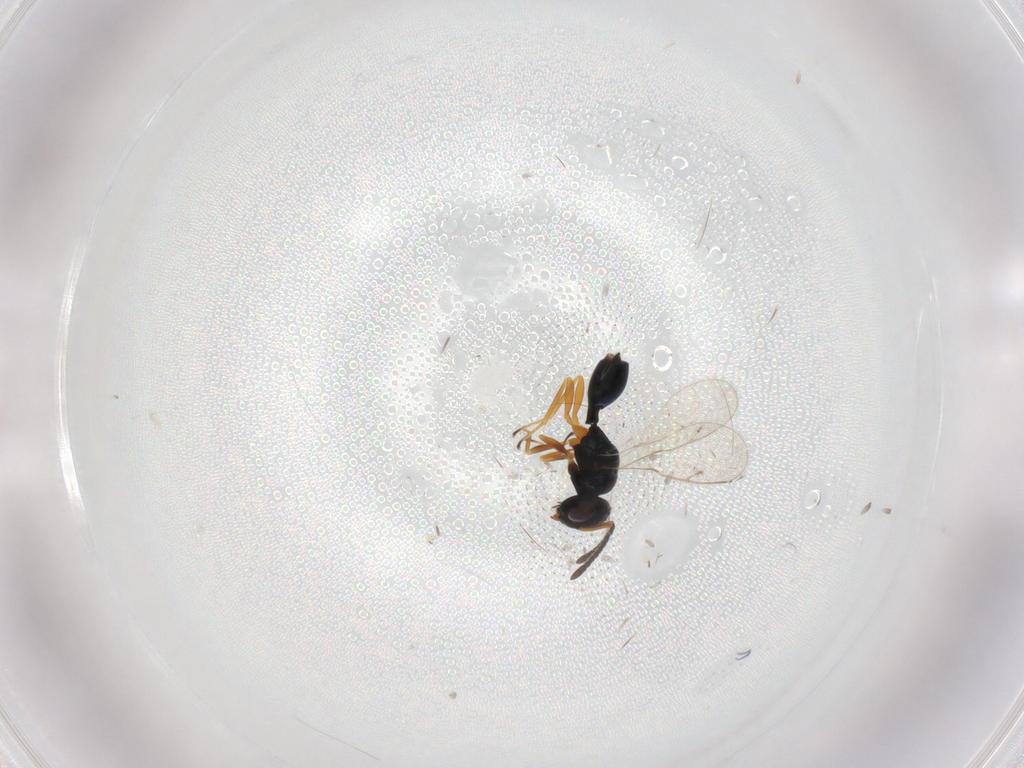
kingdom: Animalia
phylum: Arthropoda
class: Insecta
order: Hymenoptera
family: Pteromalidae
